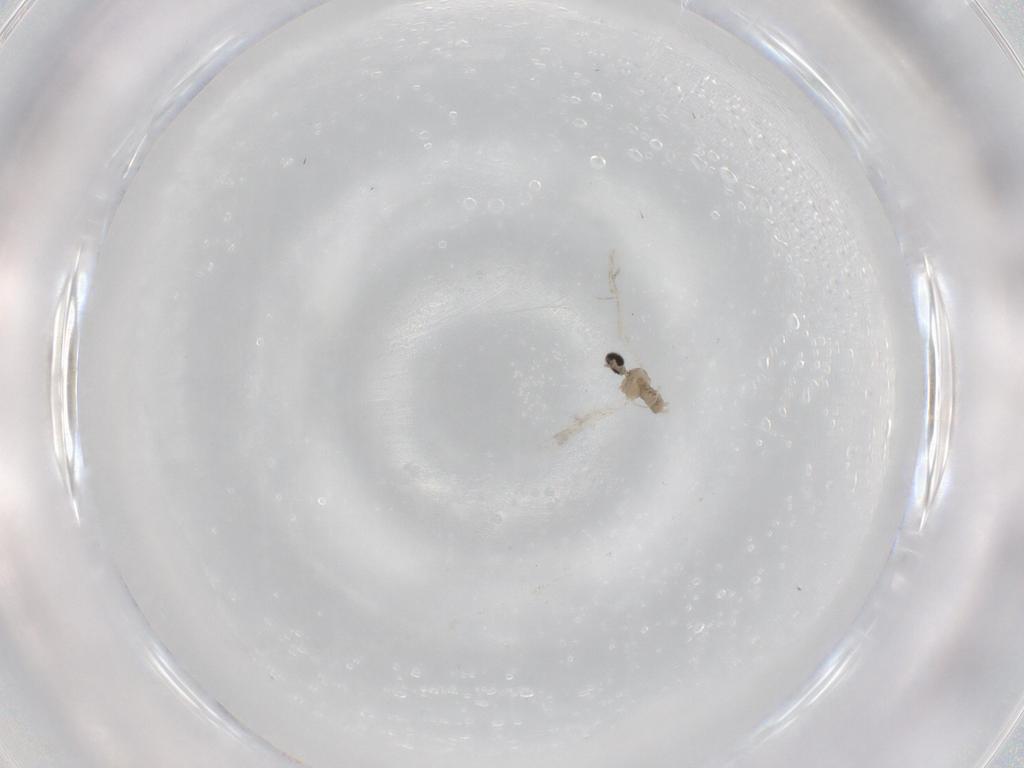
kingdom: Animalia
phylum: Arthropoda
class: Insecta
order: Diptera
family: Cecidomyiidae
